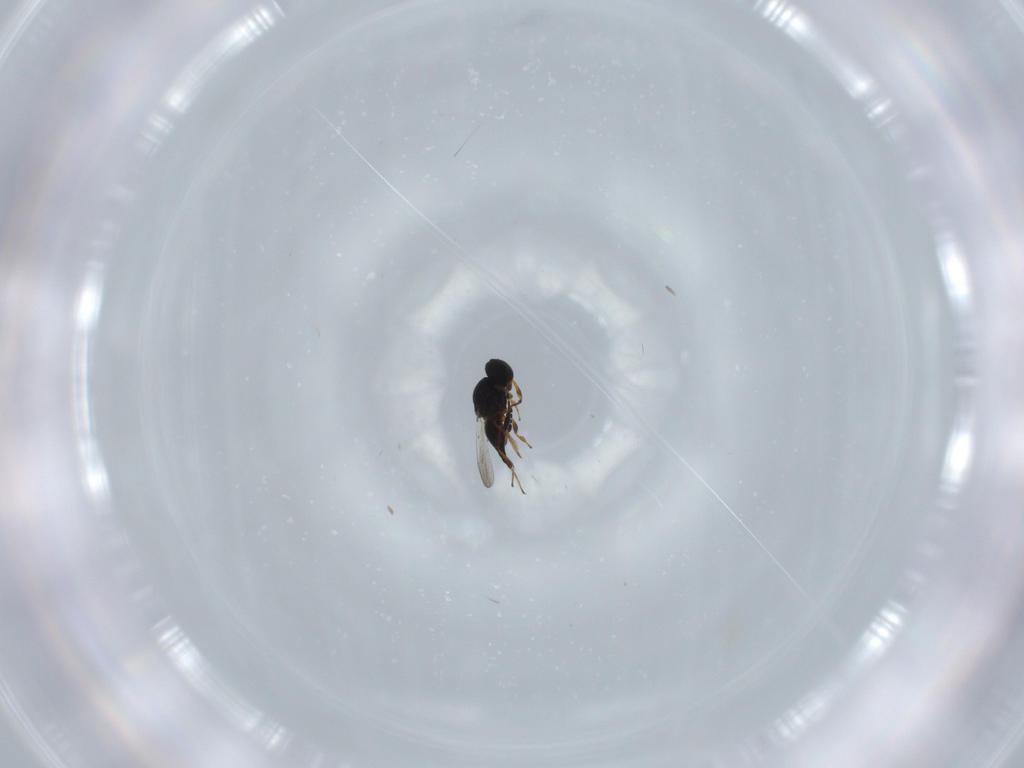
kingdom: Animalia
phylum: Arthropoda
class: Insecta
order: Hymenoptera
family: Platygastridae
